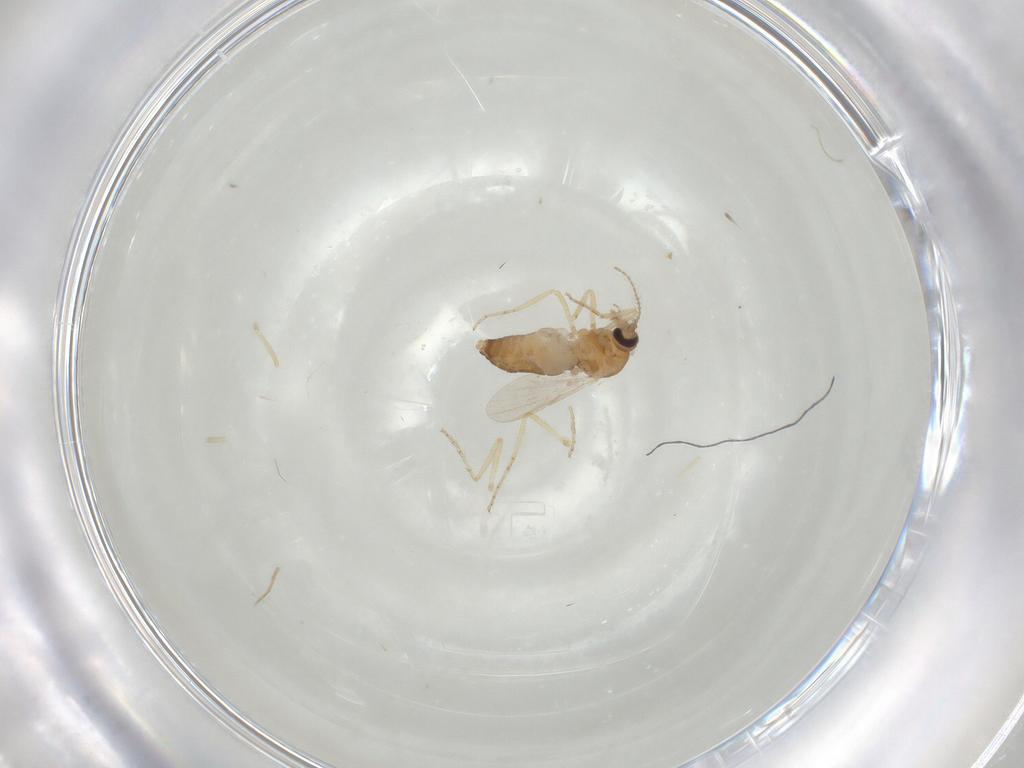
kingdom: Animalia
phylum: Arthropoda
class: Insecta
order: Diptera
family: Ceratopogonidae
